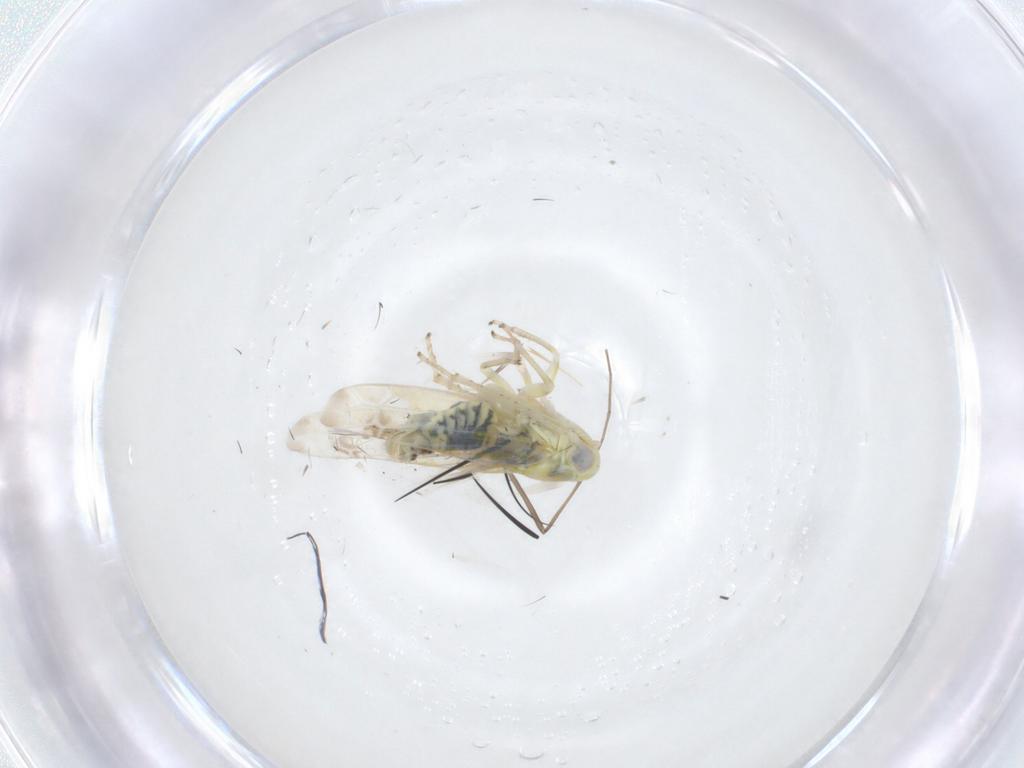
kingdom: Animalia
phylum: Arthropoda
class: Insecta
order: Hemiptera
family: Cicadellidae
